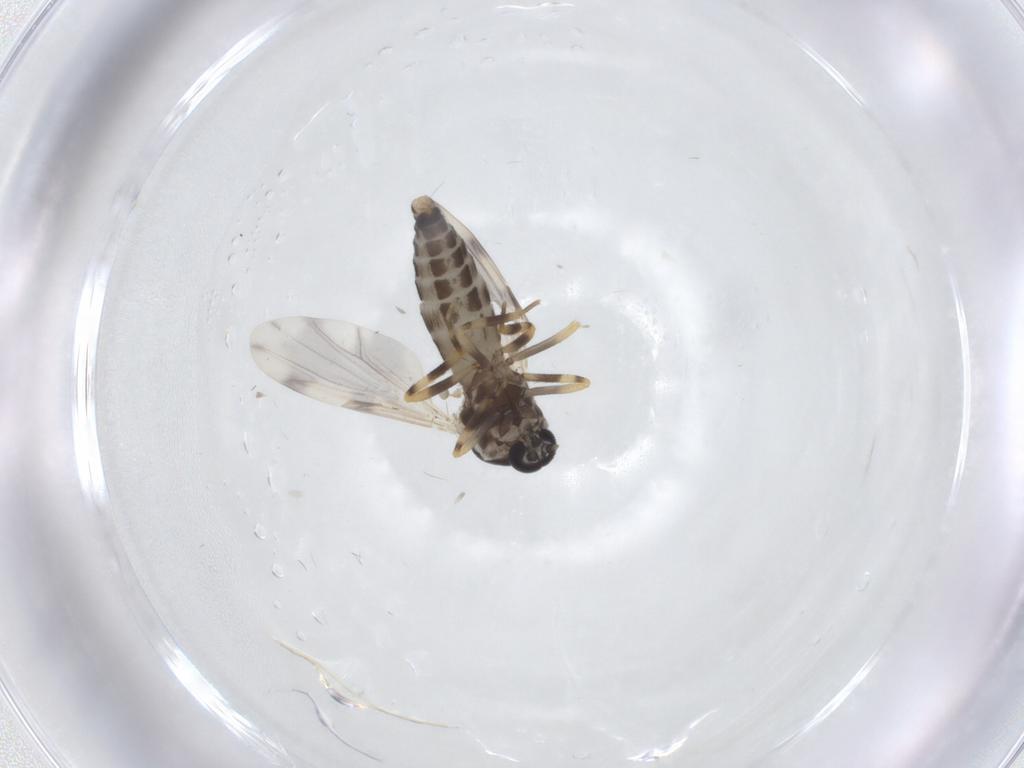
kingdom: Animalia
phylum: Arthropoda
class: Insecta
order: Diptera
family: Ceratopogonidae
